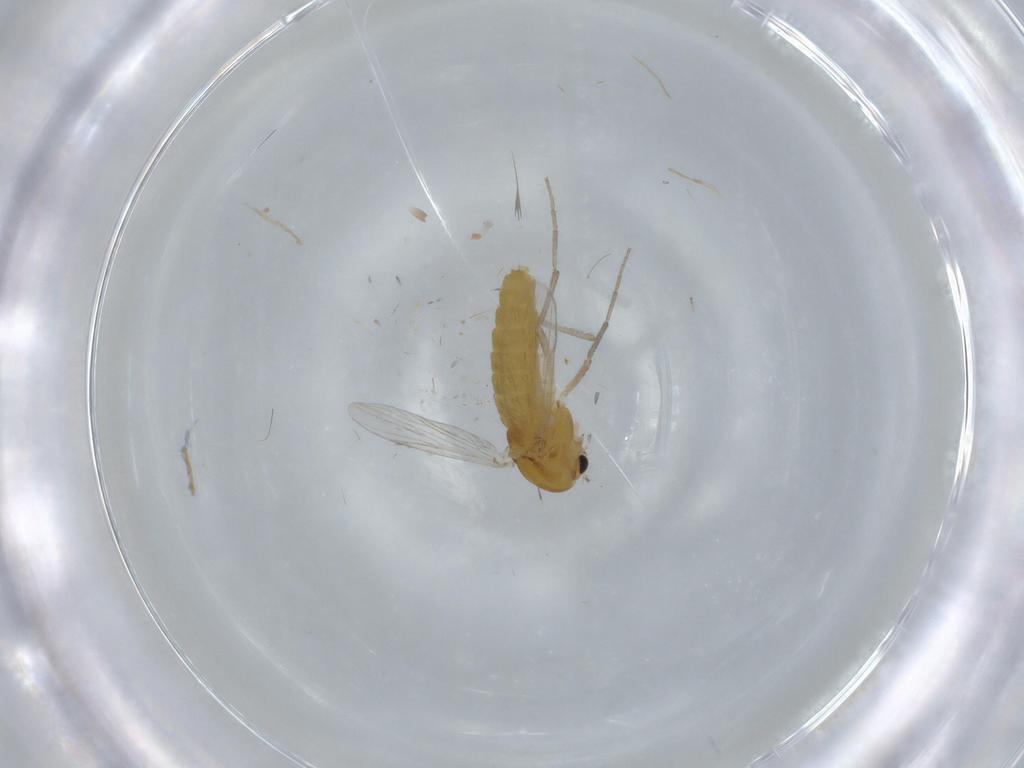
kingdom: Animalia
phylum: Arthropoda
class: Insecta
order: Diptera
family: Chironomidae
